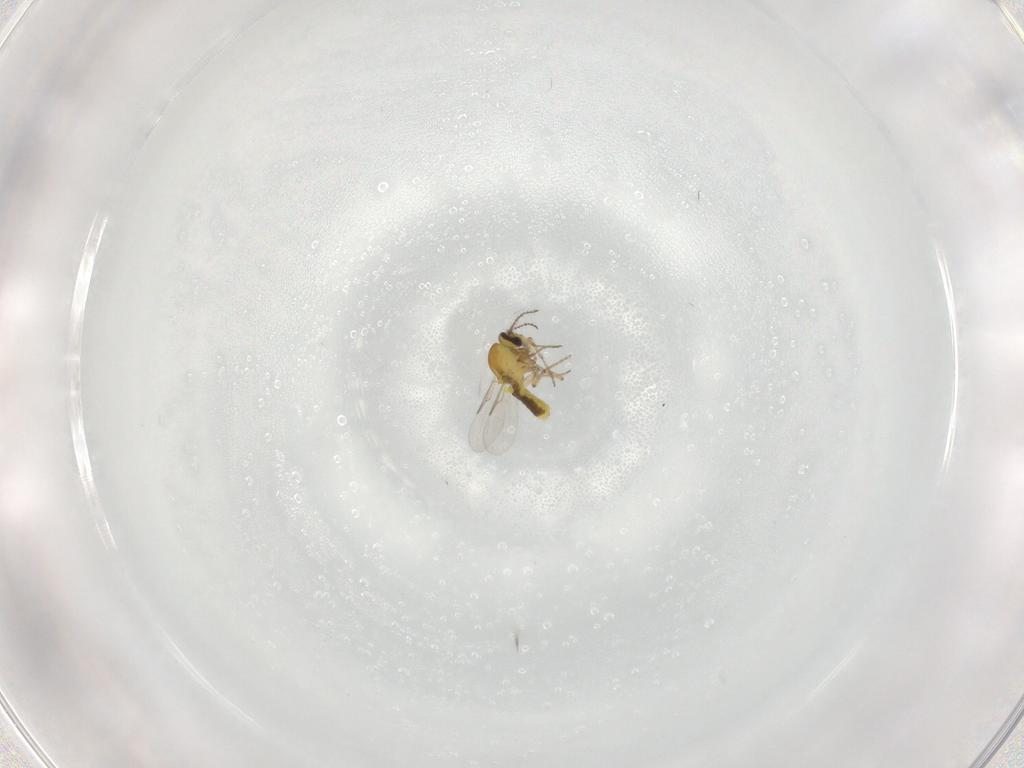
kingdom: Animalia
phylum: Arthropoda
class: Insecta
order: Diptera
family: Ceratopogonidae
